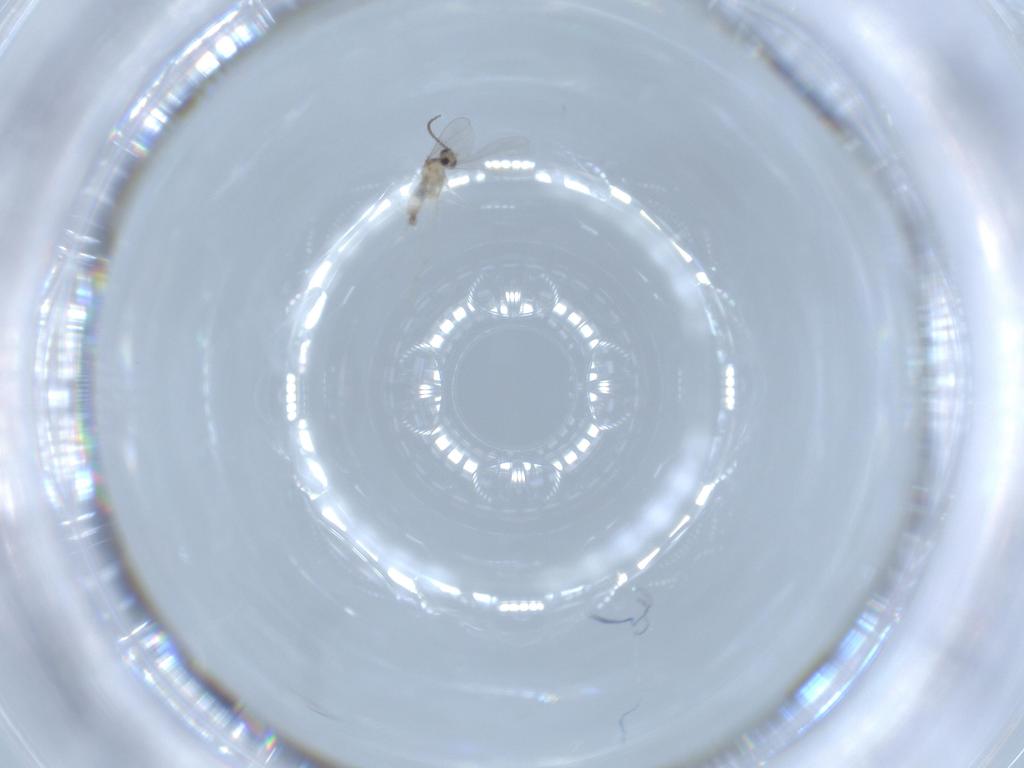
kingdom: Animalia
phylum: Arthropoda
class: Insecta
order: Diptera
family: Cecidomyiidae
